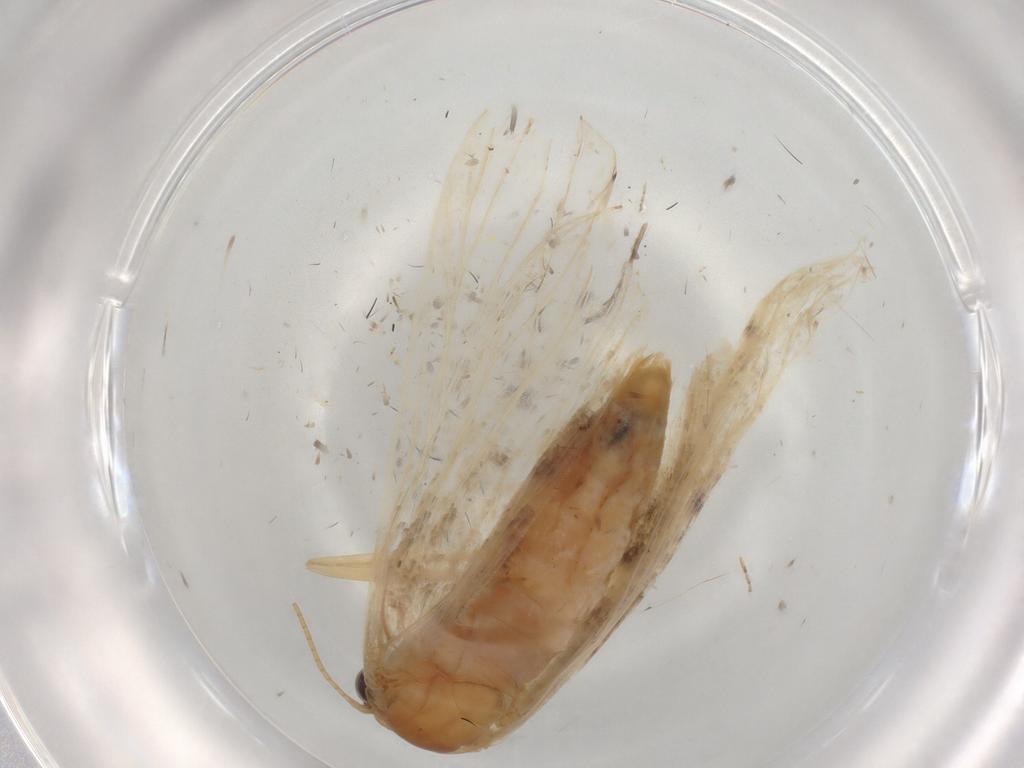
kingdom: Animalia
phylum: Arthropoda
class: Insecta
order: Lepidoptera
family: Geometridae
